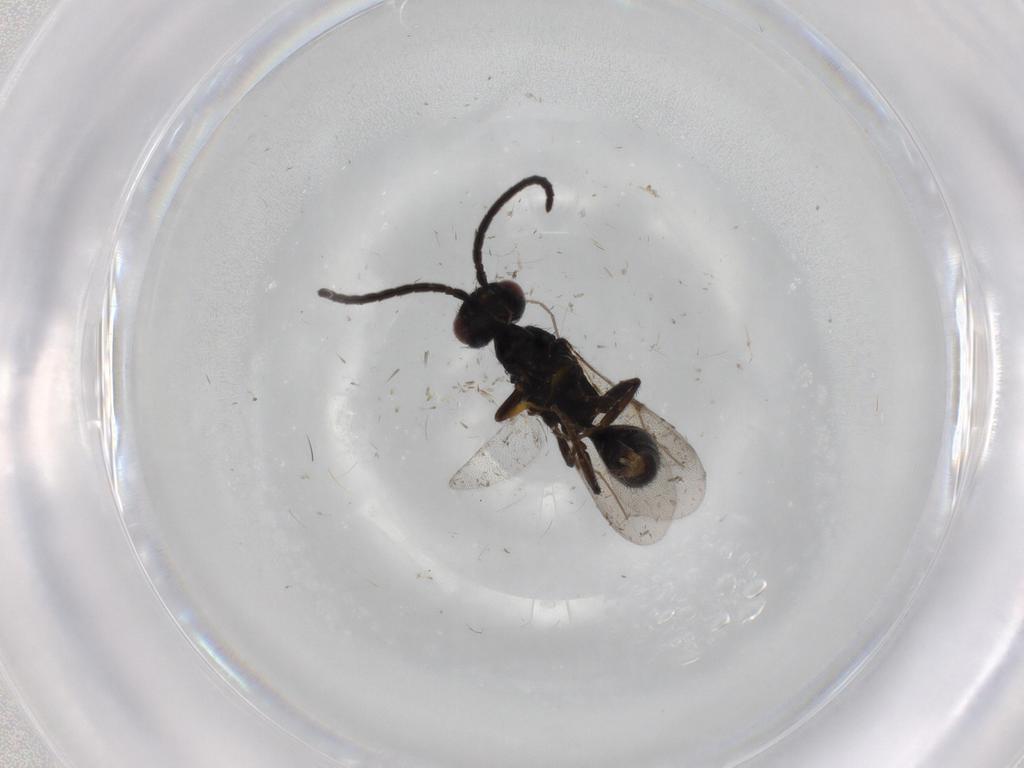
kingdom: Animalia
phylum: Arthropoda
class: Insecta
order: Hymenoptera
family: Bethylidae
